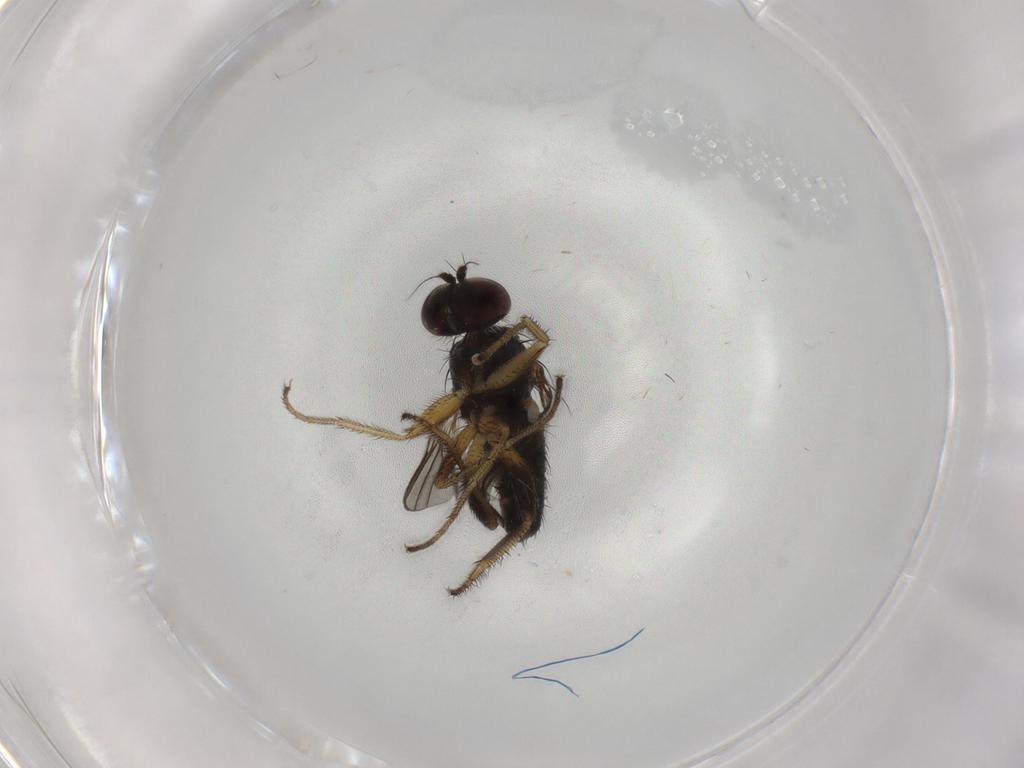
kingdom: Animalia
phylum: Arthropoda
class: Insecta
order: Diptera
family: Dolichopodidae
